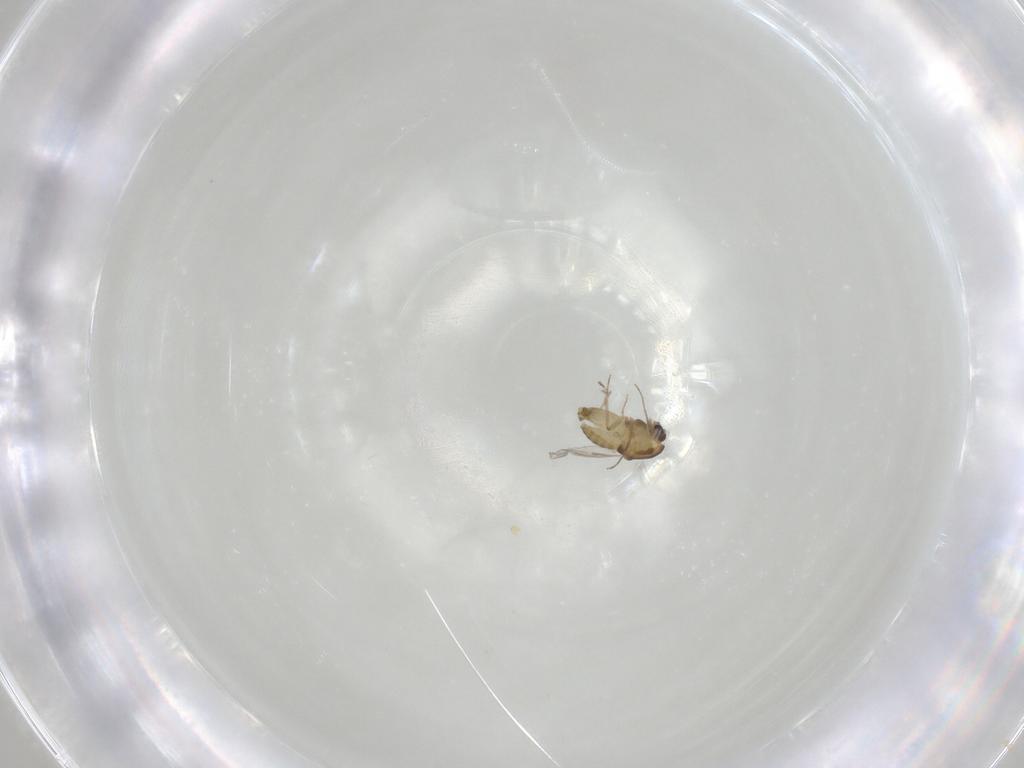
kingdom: Animalia
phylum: Arthropoda
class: Insecta
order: Diptera
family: Chironomidae
